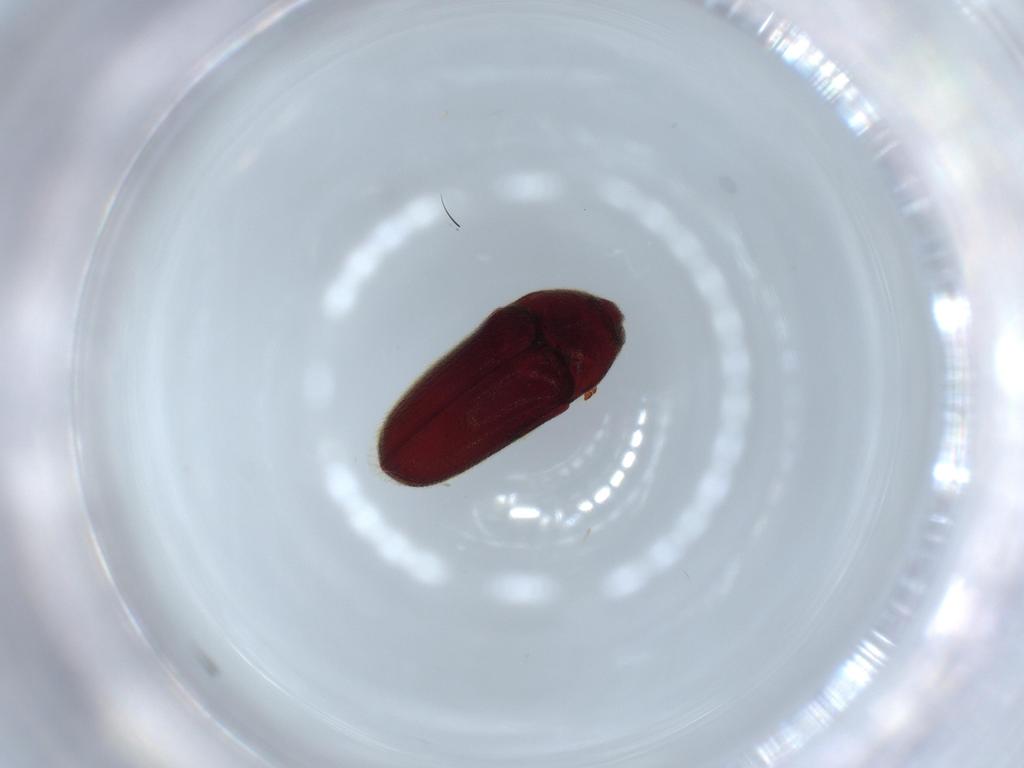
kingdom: Animalia
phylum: Arthropoda
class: Insecta
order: Coleoptera
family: Throscidae
